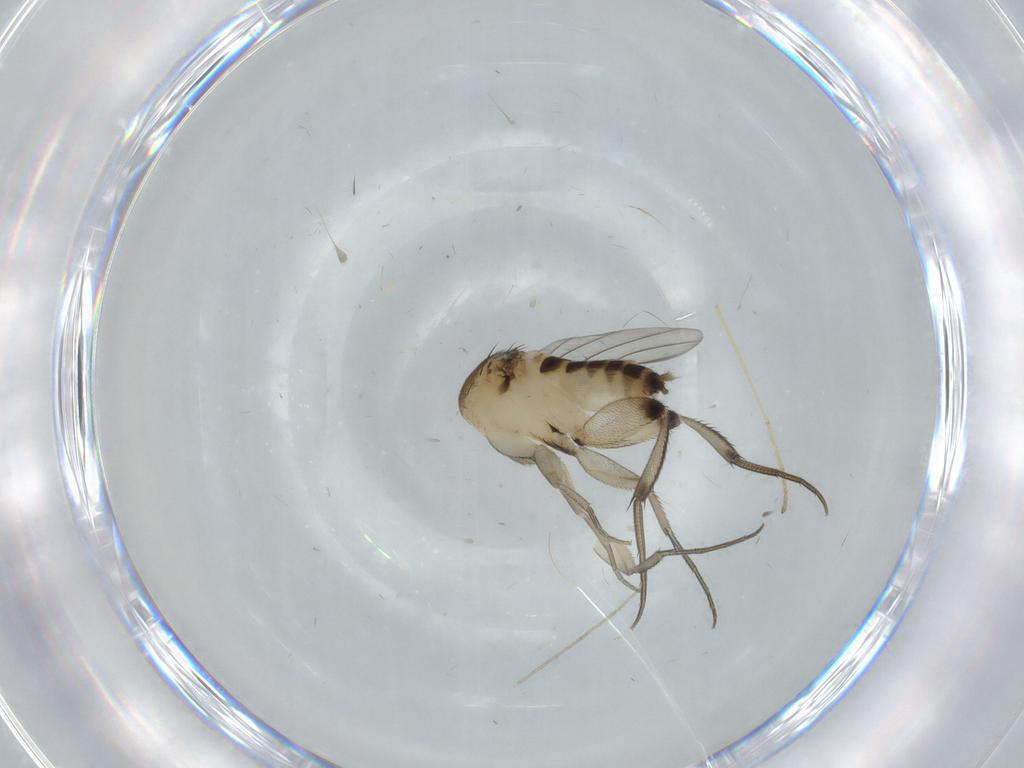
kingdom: Animalia
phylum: Arthropoda
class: Insecta
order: Diptera
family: Phoridae
